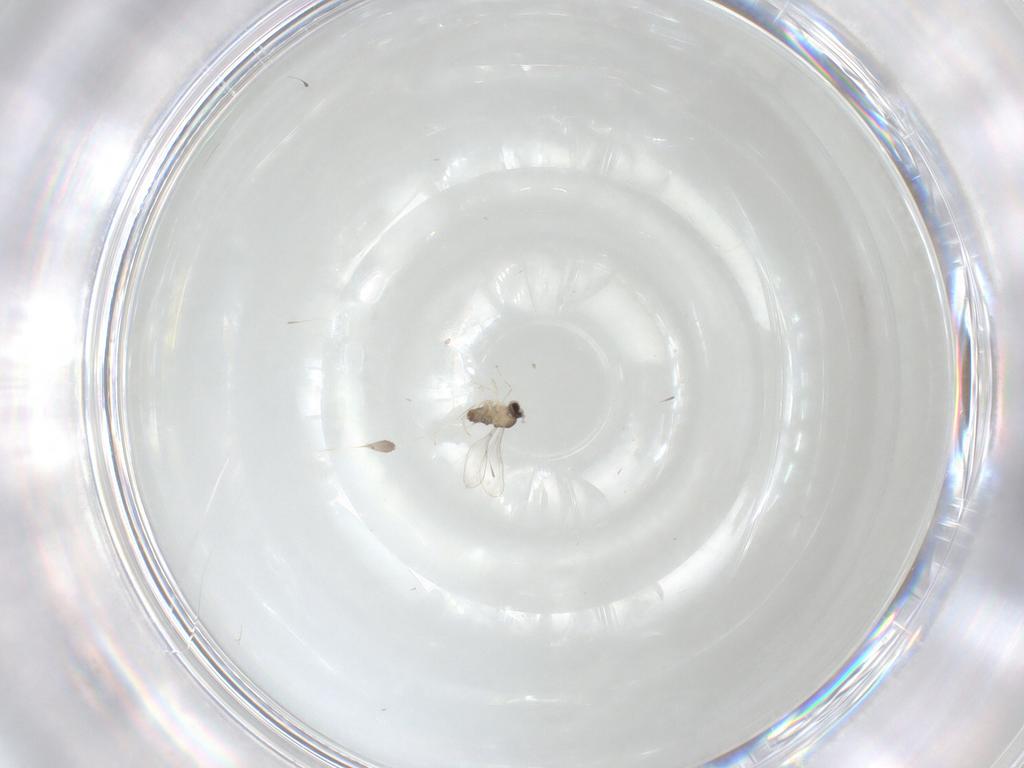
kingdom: Animalia
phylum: Arthropoda
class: Insecta
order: Diptera
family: Cecidomyiidae
